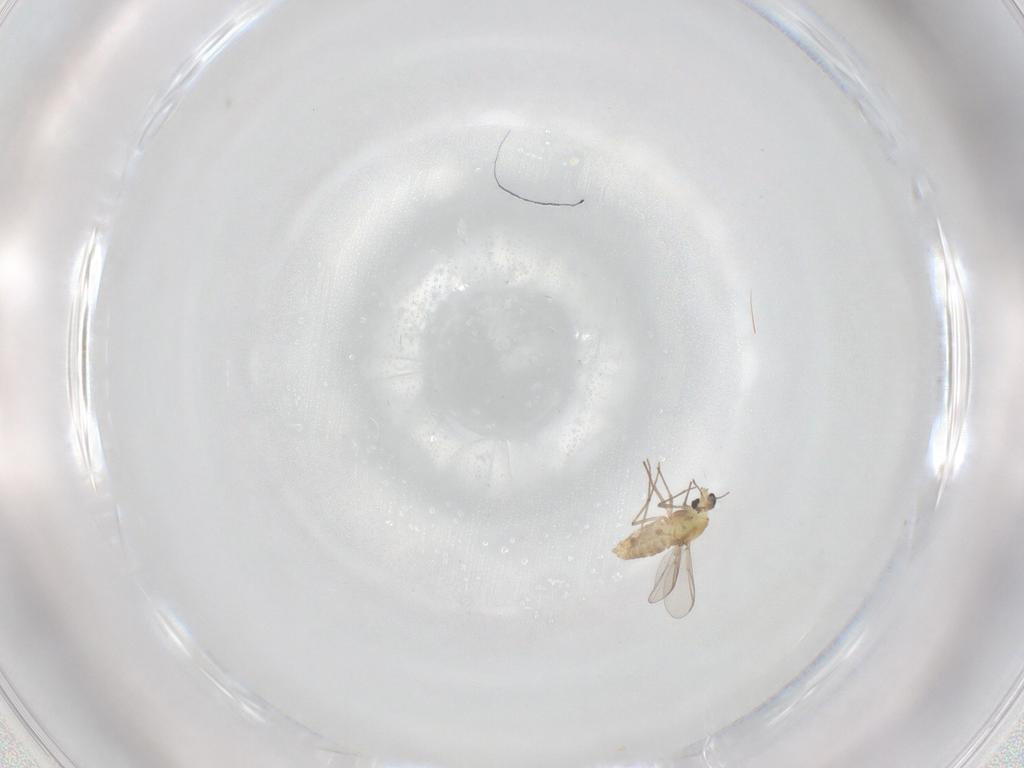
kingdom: Animalia
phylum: Arthropoda
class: Insecta
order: Diptera
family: Chironomidae
